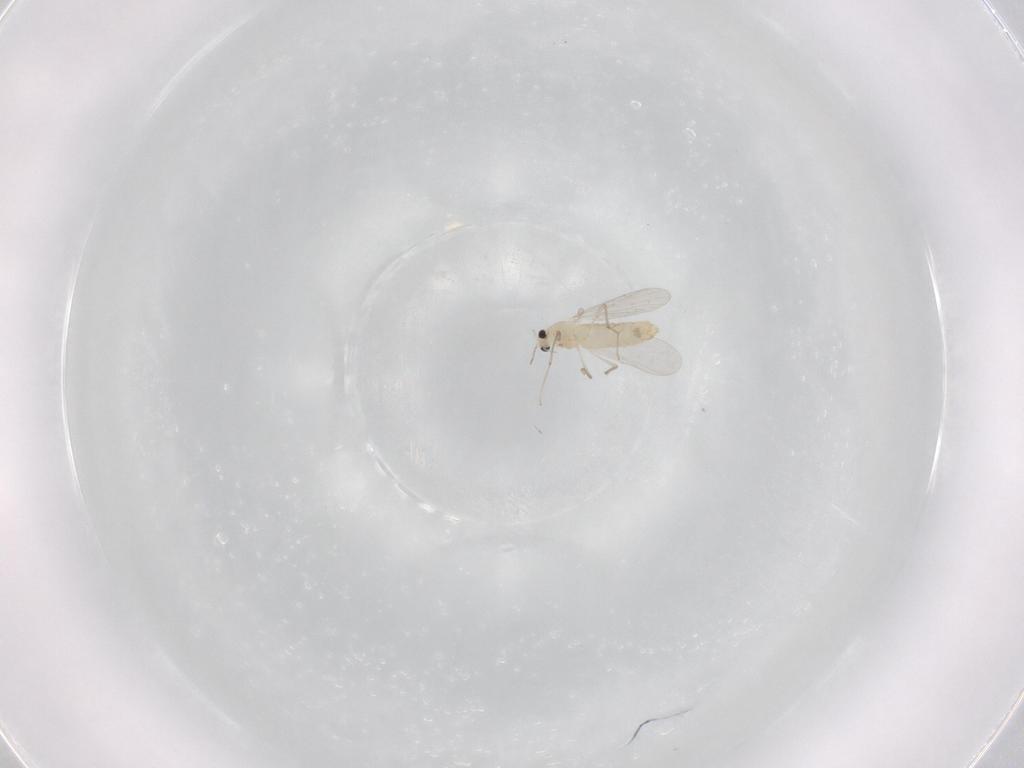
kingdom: Animalia
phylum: Arthropoda
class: Insecta
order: Diptera
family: Chironomidae
